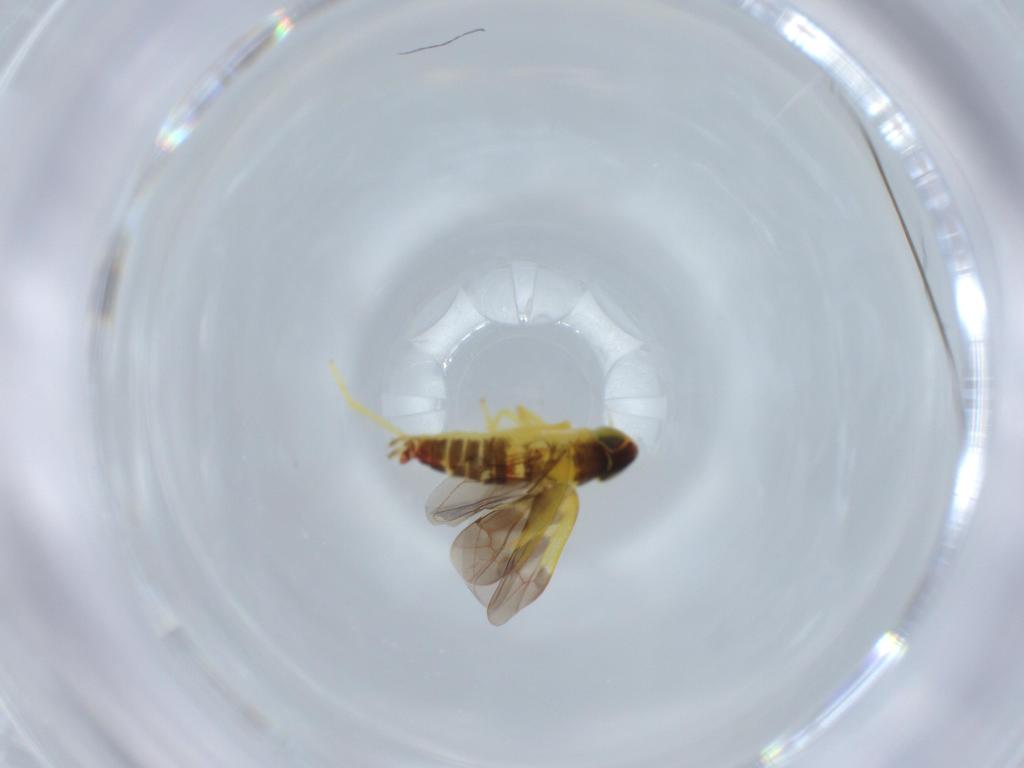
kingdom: Animalia
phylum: Arthropoda
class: Insecta
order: Hemiptera
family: Cicadellidae
